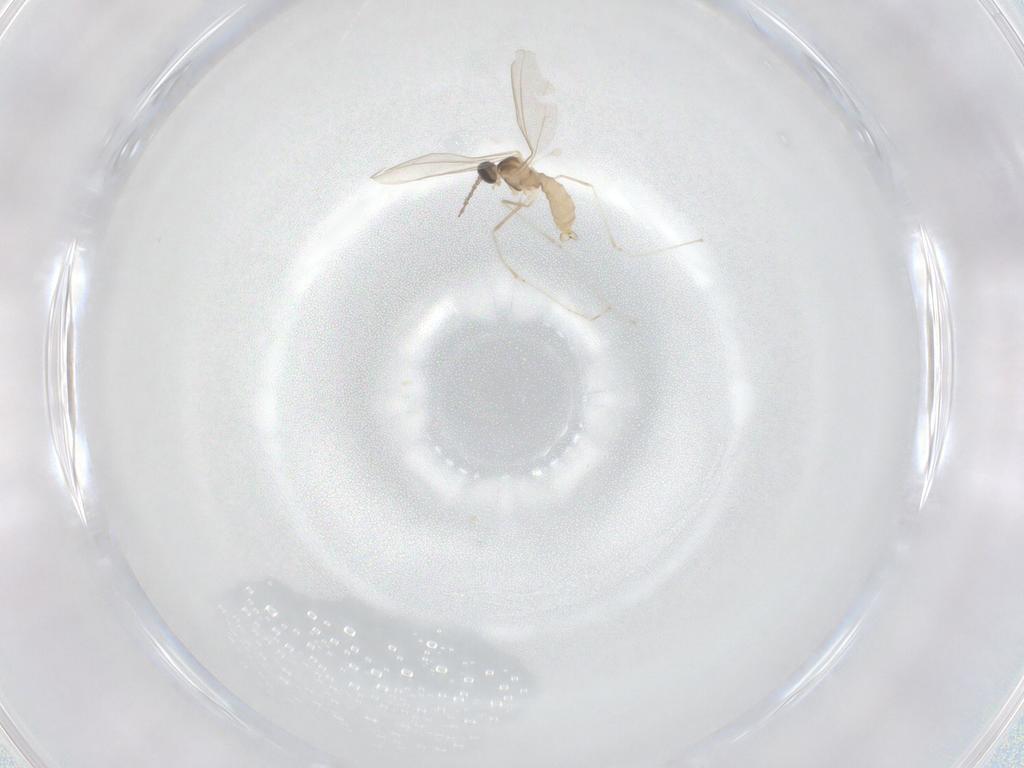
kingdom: Animalia
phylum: Arthropoda
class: Insecta
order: Diptera
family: Cecidomyiidae
